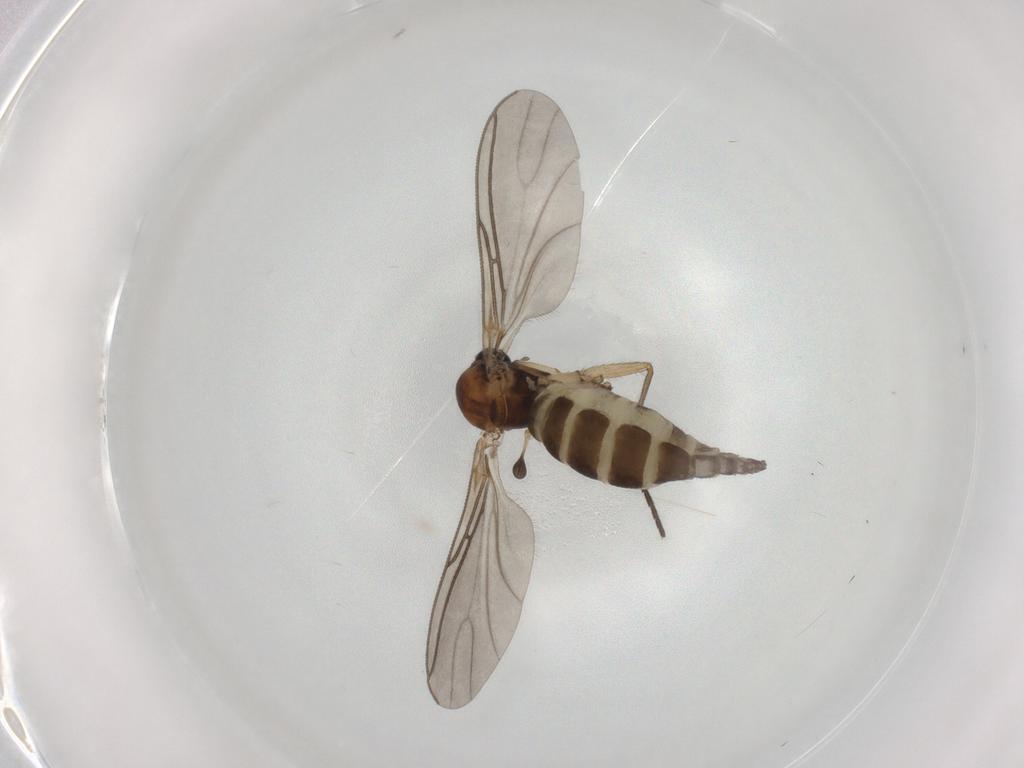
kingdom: Animalia
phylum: Arthropoda
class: Insecta
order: Diptera
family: Sciaridae
